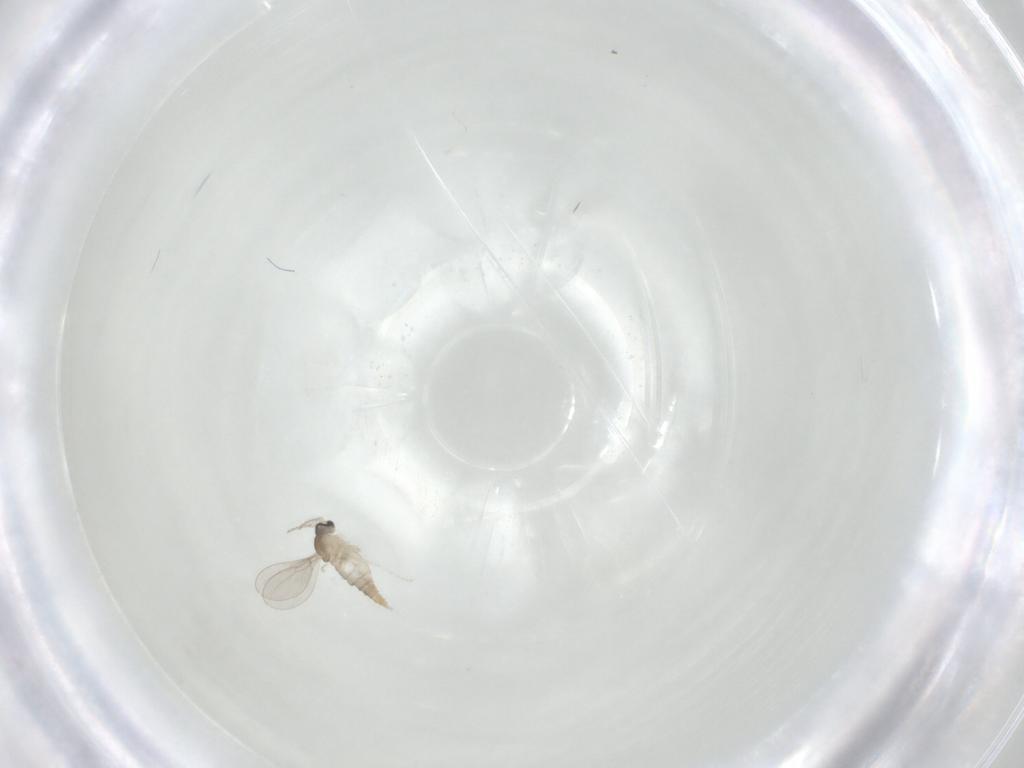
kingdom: Animalia
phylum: Arthropoda
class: Insecta
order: Diptera
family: Cecidomyiidae
